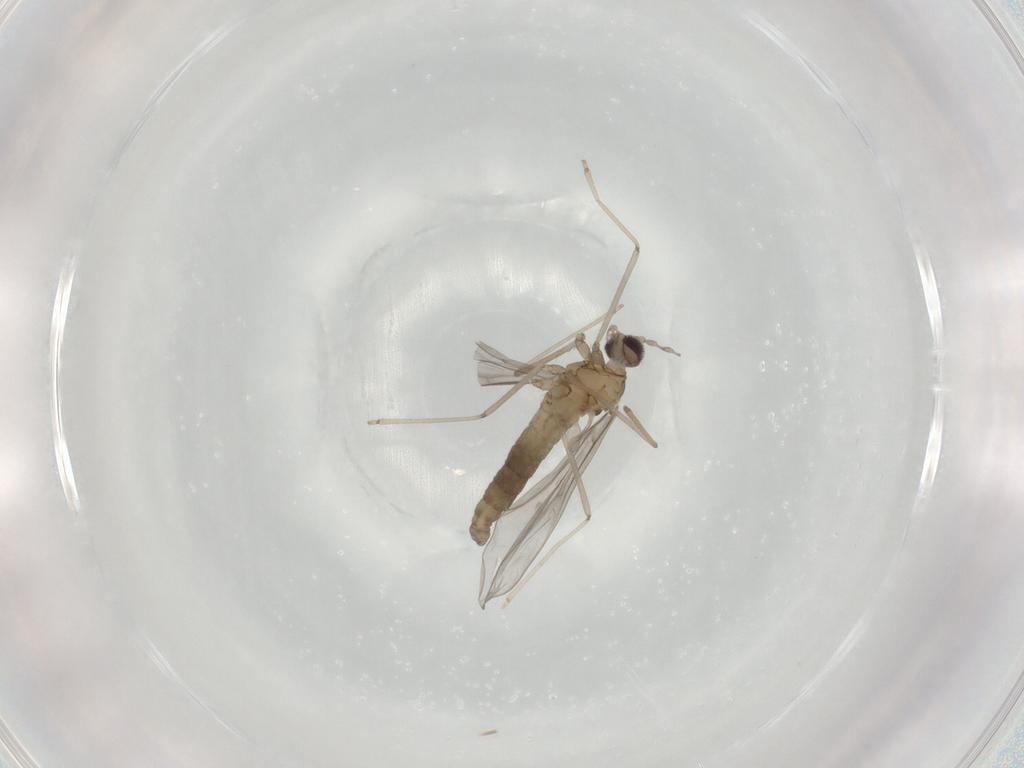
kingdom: Animalia
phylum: Arthropoda
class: Insecta
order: Diptera
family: Cecidomyiidae
